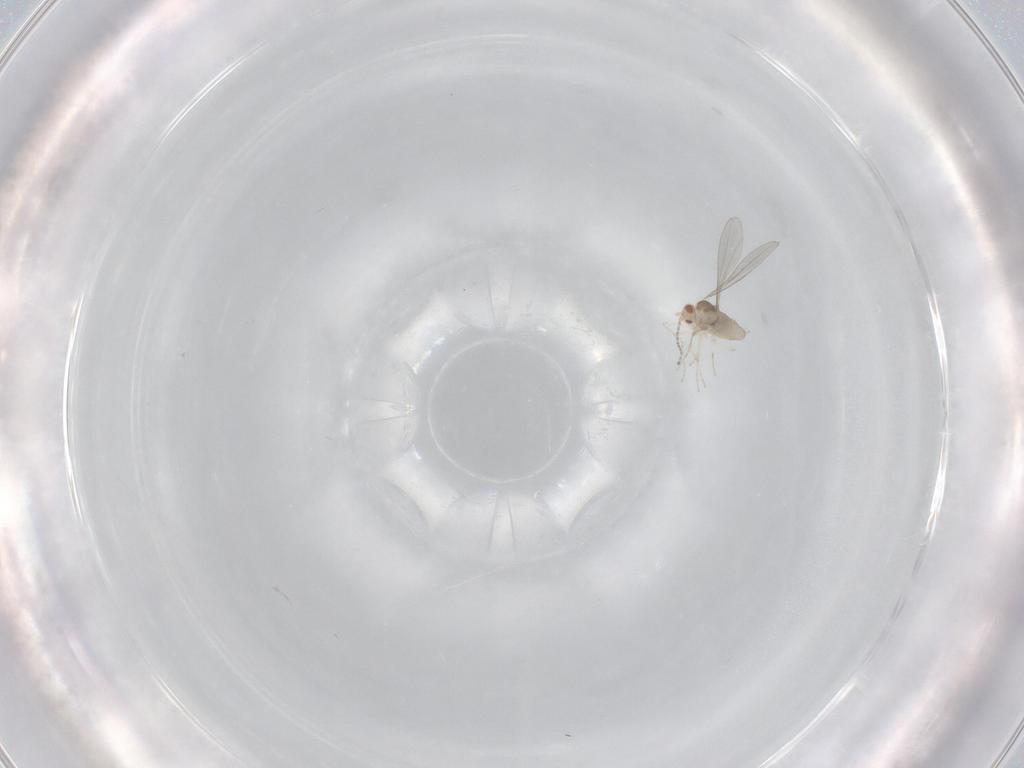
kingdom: Animalia
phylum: Arthropoda
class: Insecta
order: Diptera
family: Cecidomyiidae
